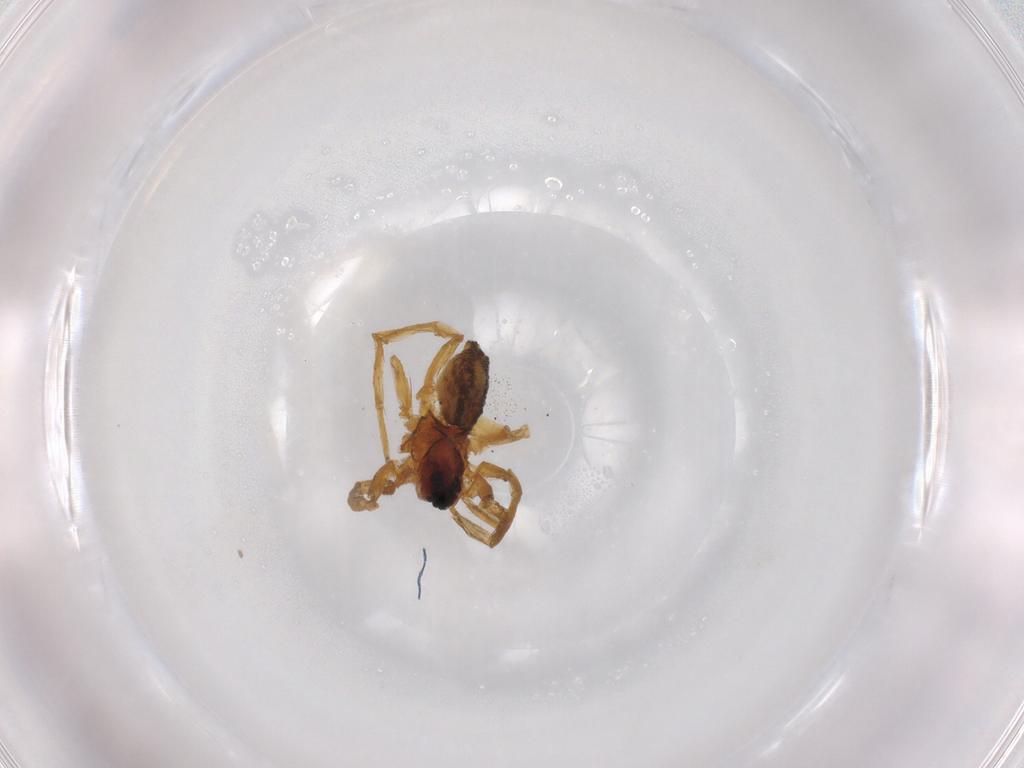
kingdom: Animalia
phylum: Arthropoda
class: Arachnida
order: Araneae
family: Lycosidae
